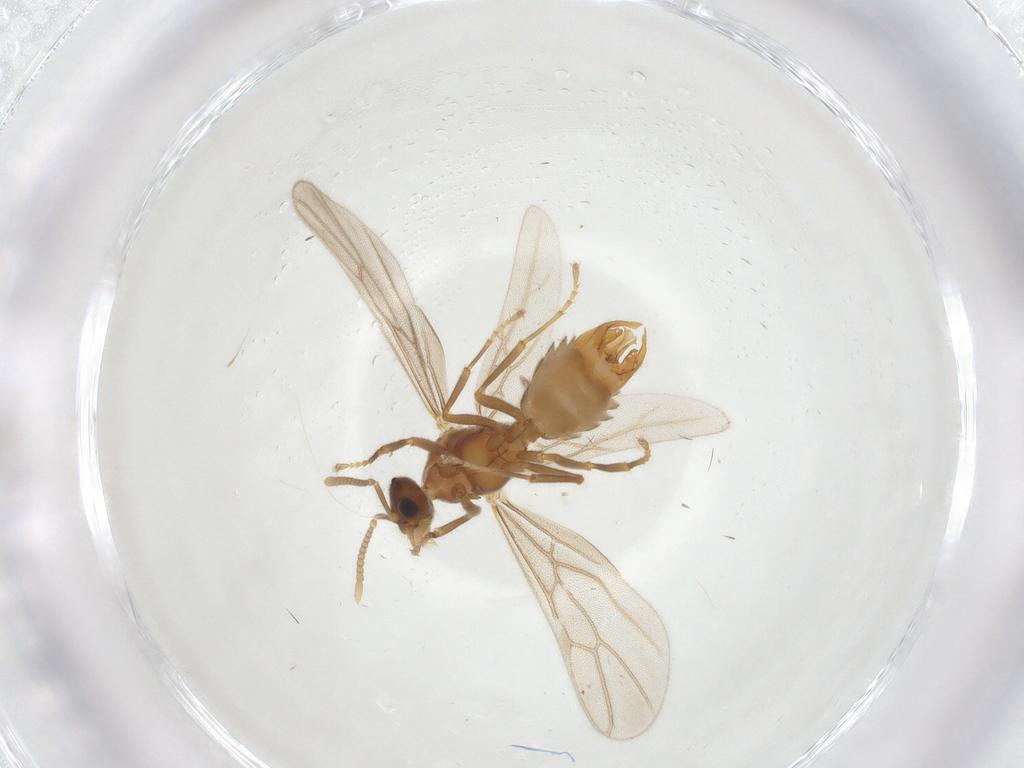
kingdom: Animalia
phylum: Arthropoda
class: Insecta
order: Hymenoptera
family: Formicidae
